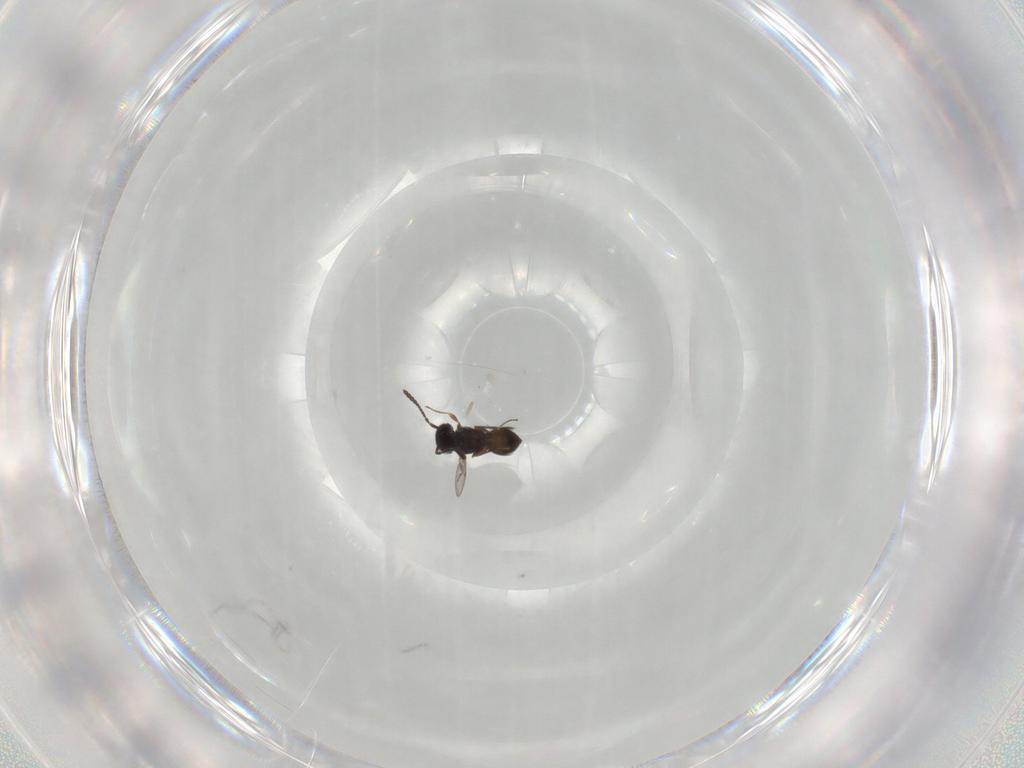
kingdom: Animalia
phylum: Arthropoda
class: Insecta
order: Hymenoptera
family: Scelionidae
